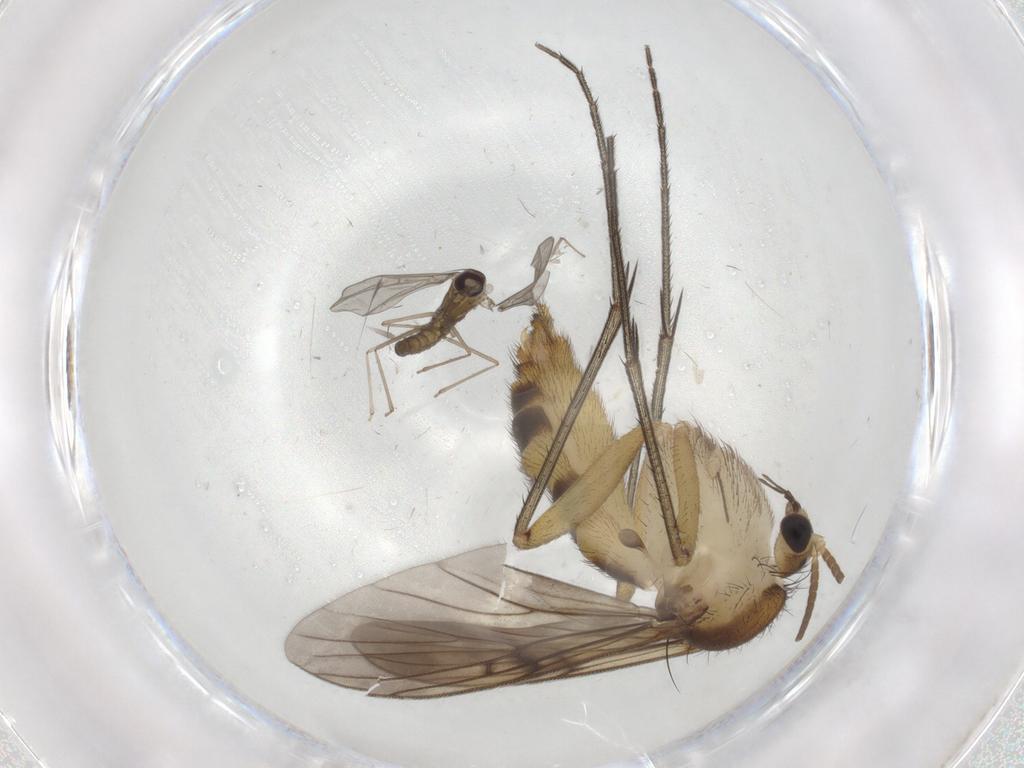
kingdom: Animalia
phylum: Arthropoda
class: Insecta
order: Diptera
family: Mycetophilidae
